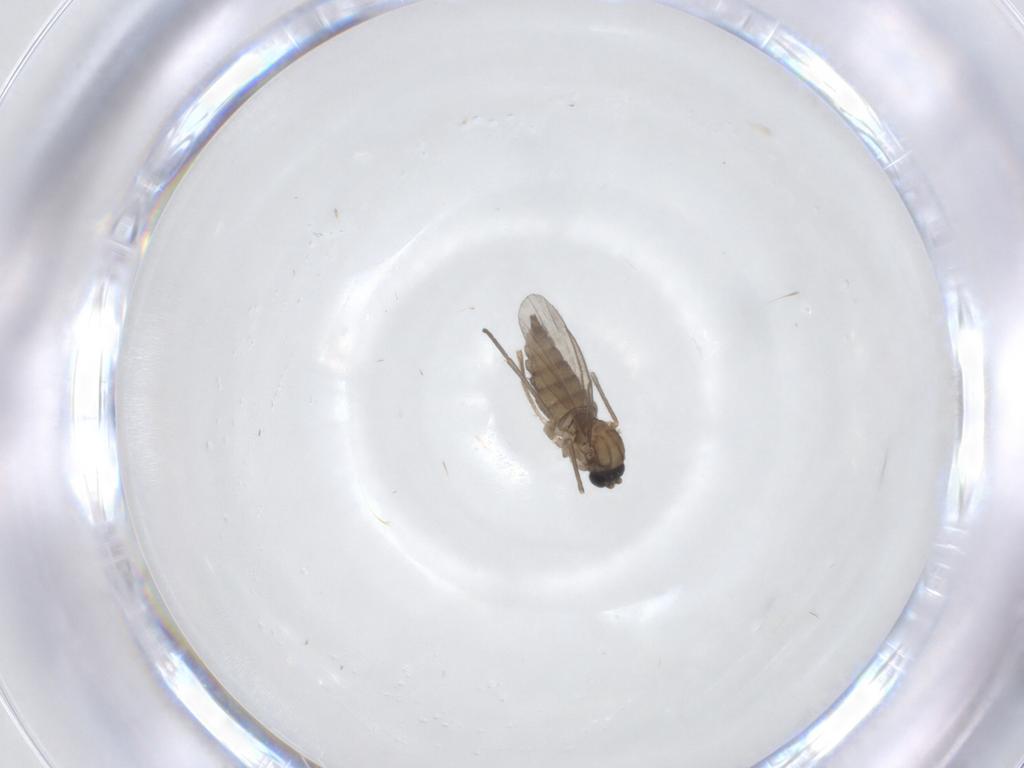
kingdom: Animalia
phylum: Arthropoda
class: Insecta
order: Diptera
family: Sciaridae
